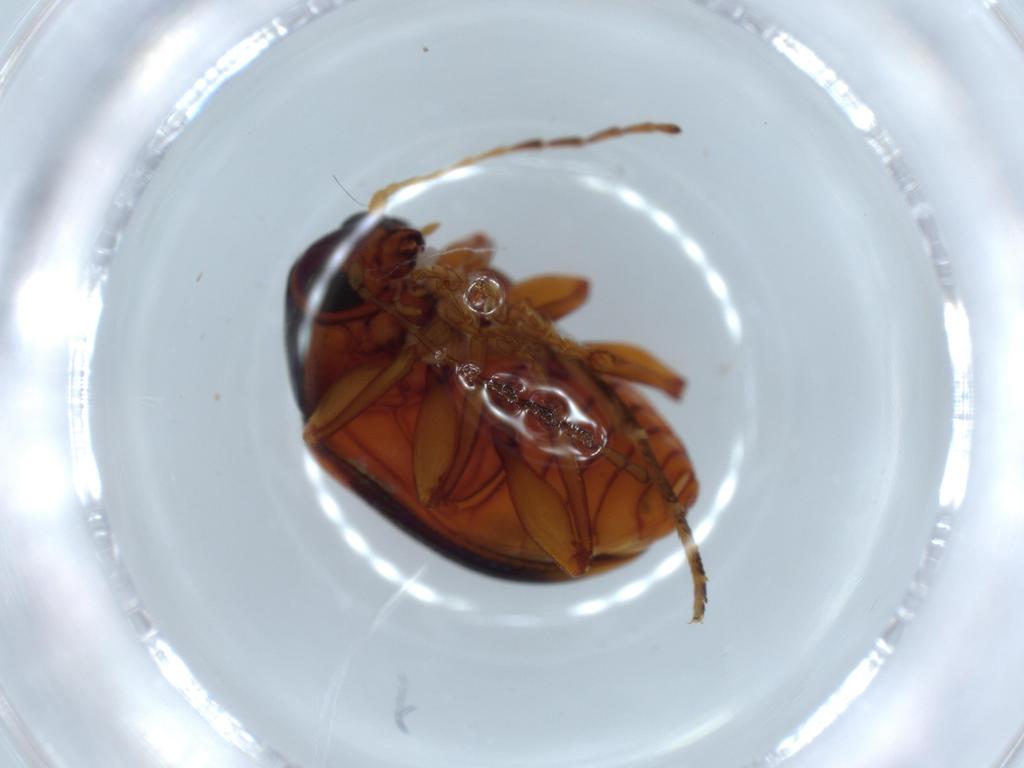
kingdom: Animalia
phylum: Arthropoda
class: Insecta
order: Coleoptera
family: Chrysomelidae
